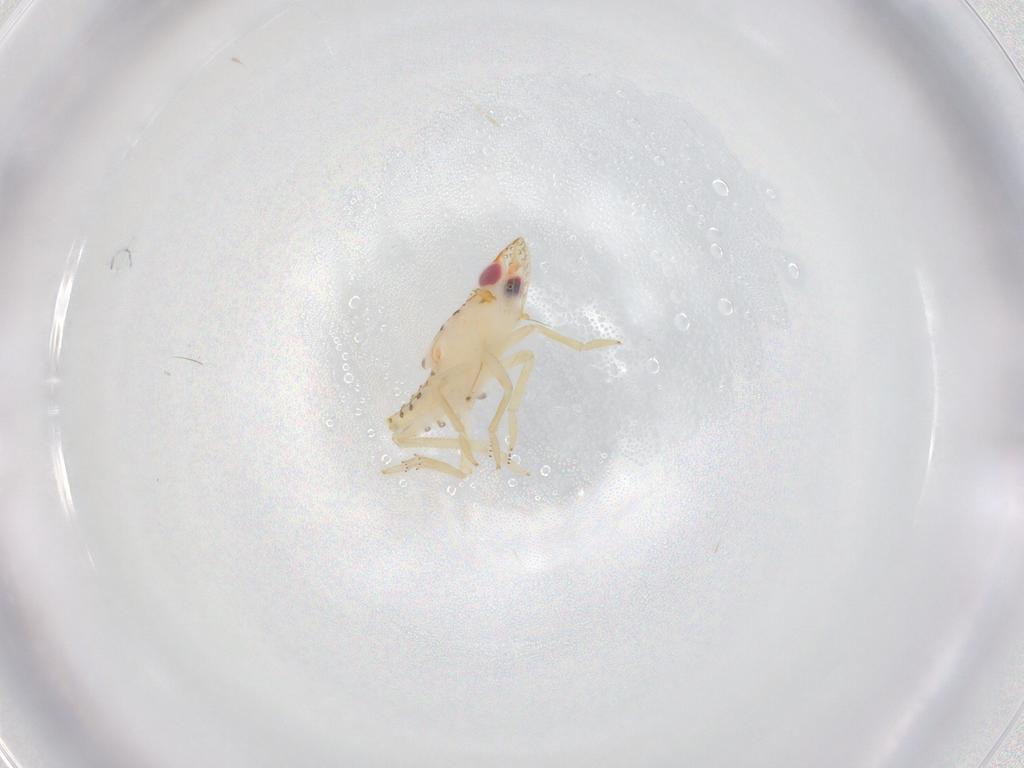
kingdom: Animalia
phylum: Arthropoda
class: Insecta
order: Hemiptera
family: Tropiduchidae
